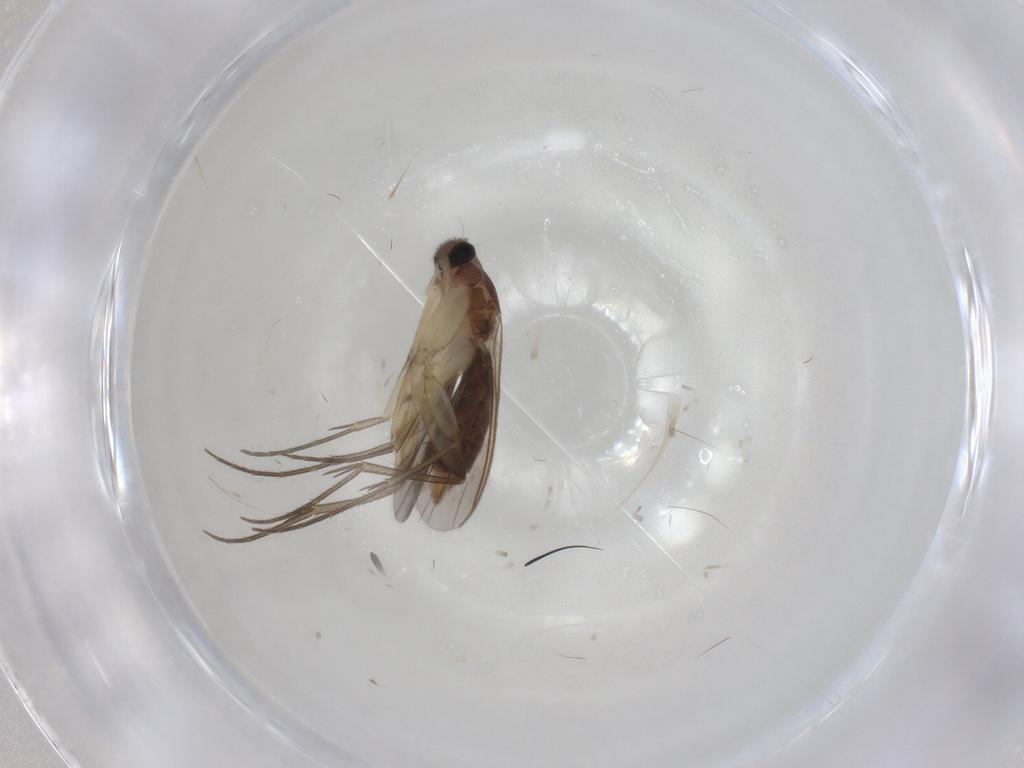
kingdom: Animalia
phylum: Arthropoda
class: Insecta
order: Diptera
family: Mycetophilidae
